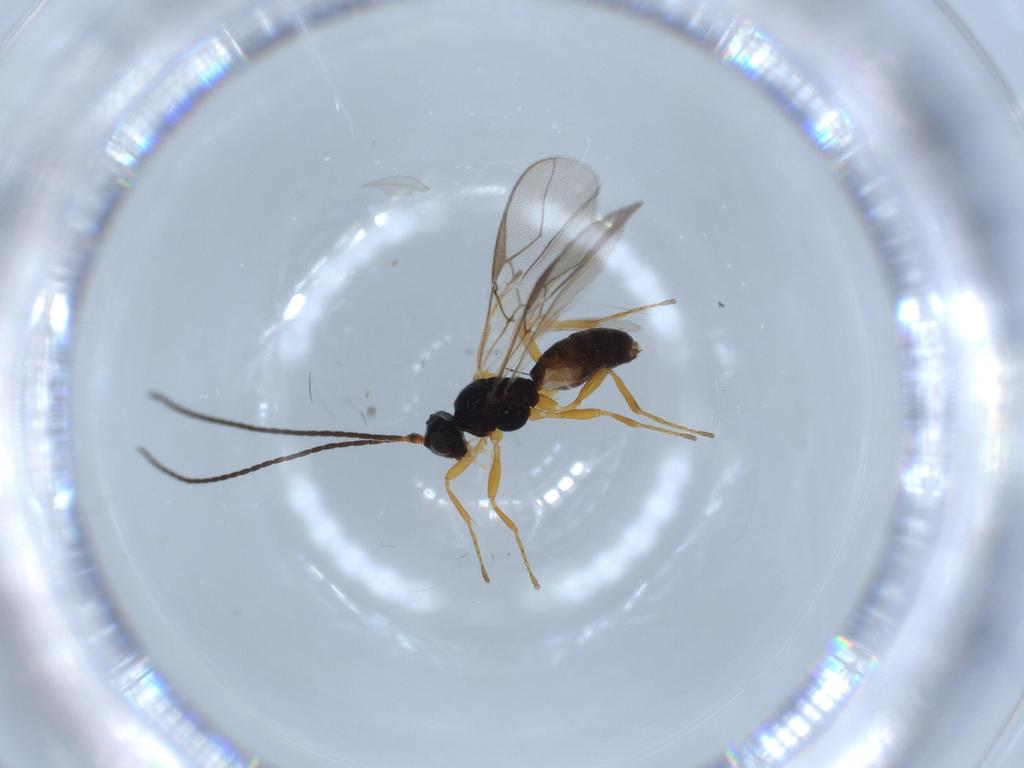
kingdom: Animalia
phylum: Arthropoda
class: Insecta
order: Hymenoptera
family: Braconidae
